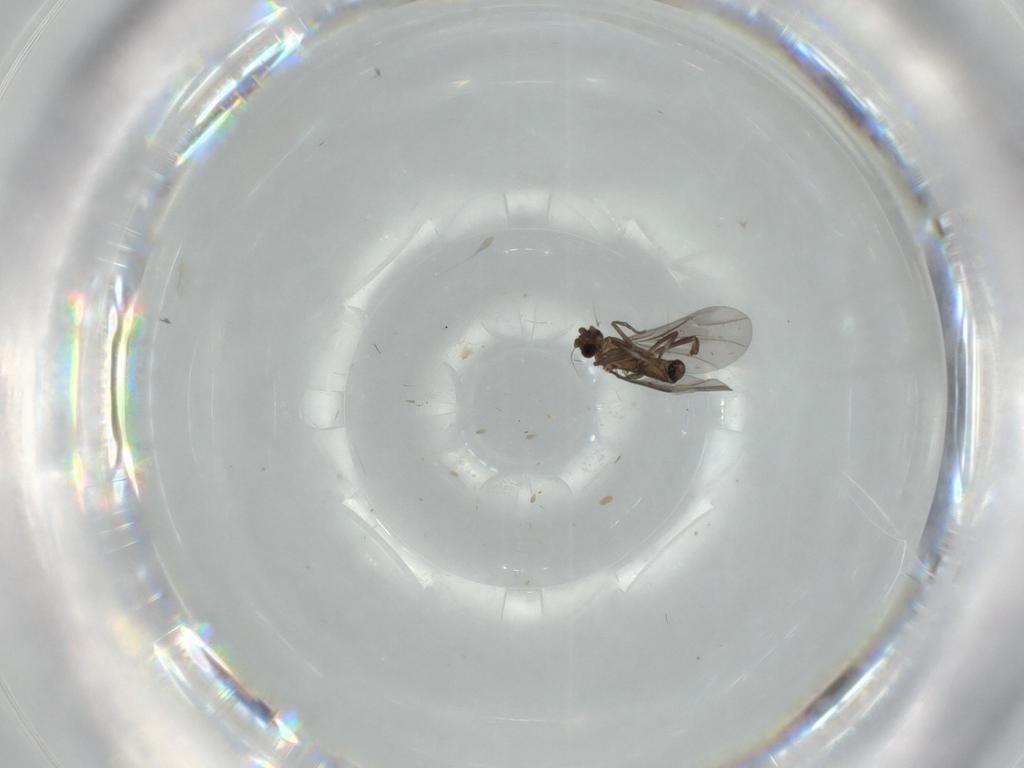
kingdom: Animalia
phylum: Arthropoda
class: Insecta
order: Diptera
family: Phoridae
